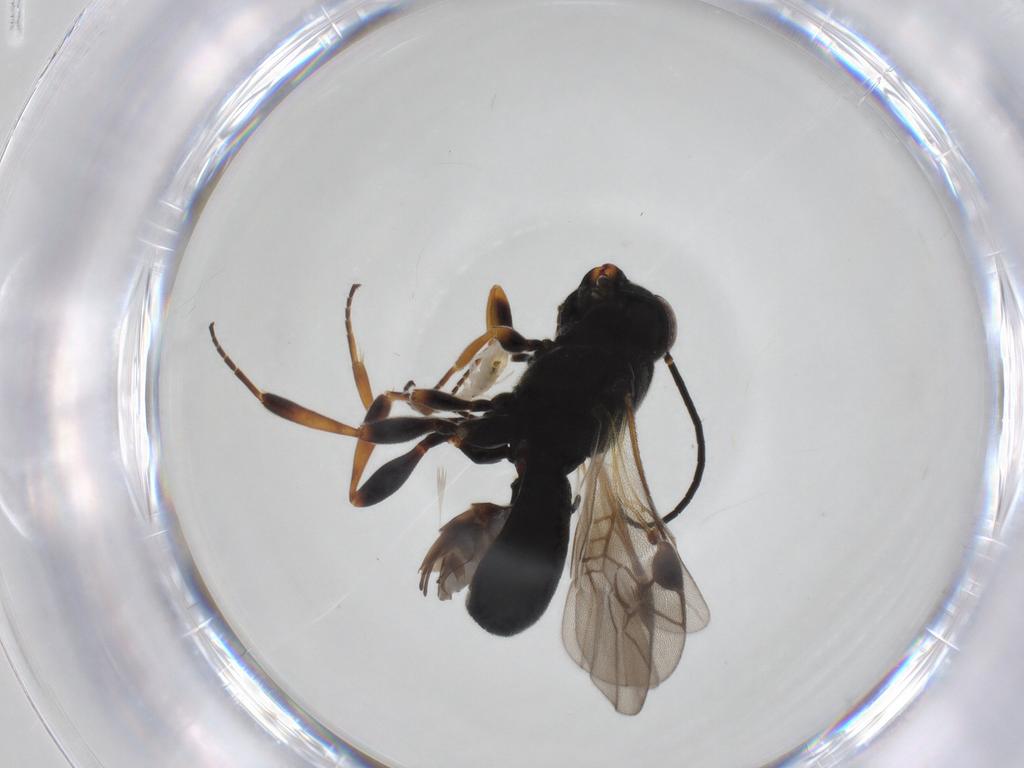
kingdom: Animalia
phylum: Arthropoda
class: Insecta
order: Hymenoptera
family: Braconidae
